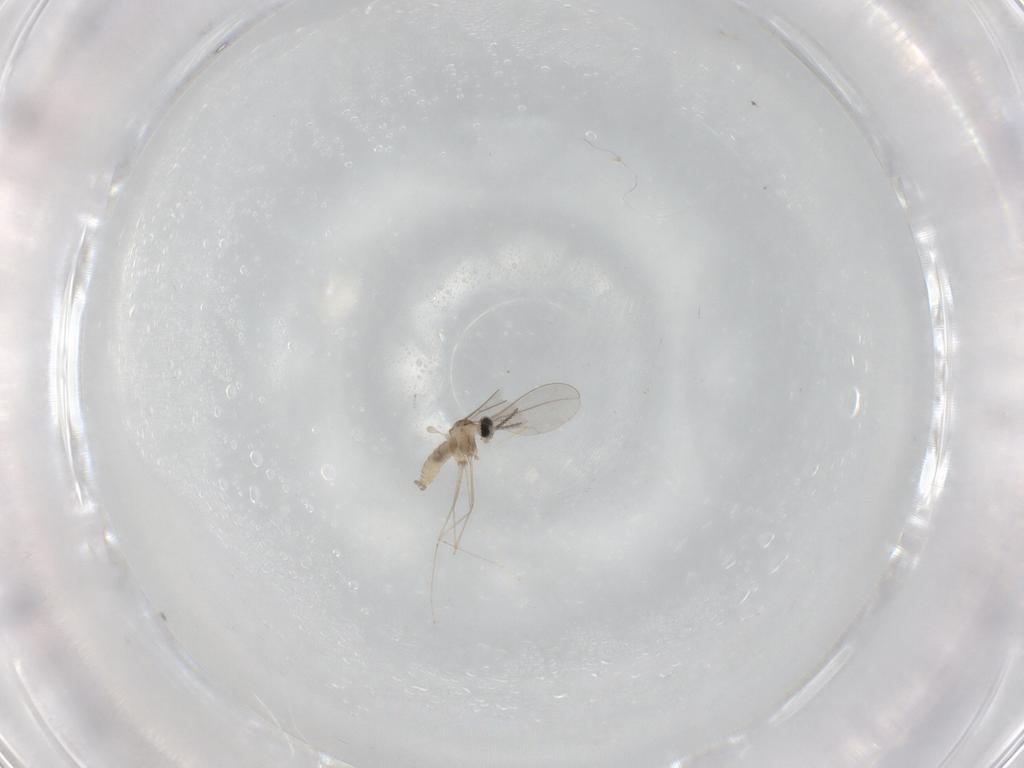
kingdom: Animalia
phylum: Arthropoda
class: Insecta
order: Diptera
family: Cecidomyiidae
